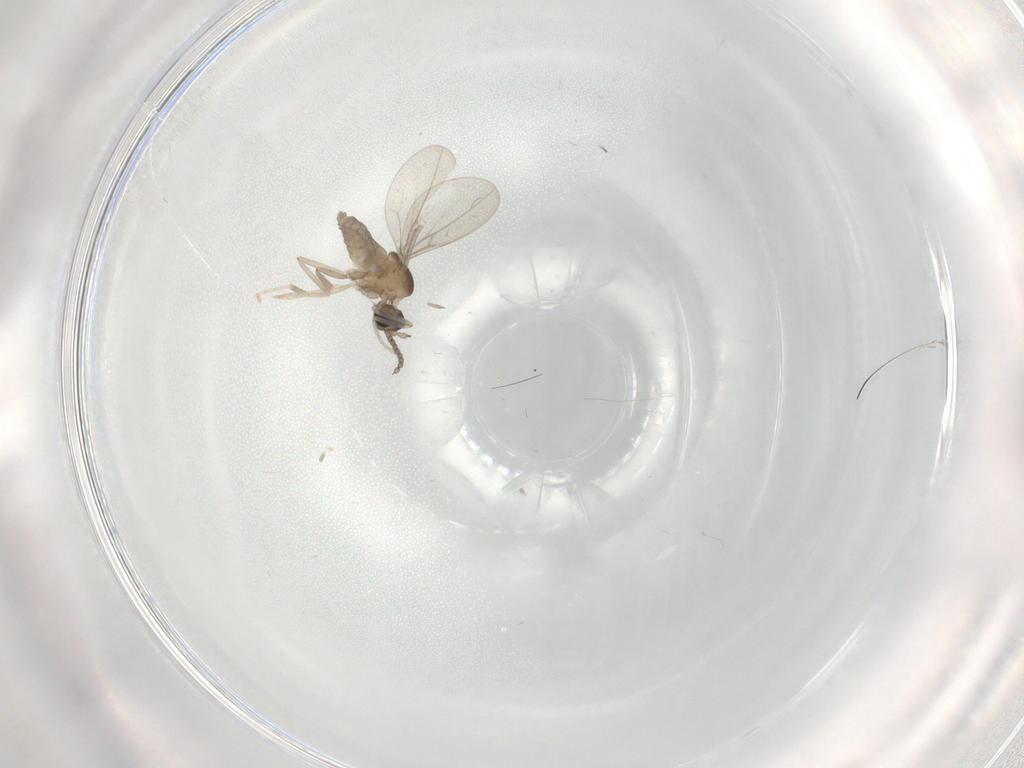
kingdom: Animalia
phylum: Arthropoda
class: Insecta
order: Diptera
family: Cecidomyiidae
